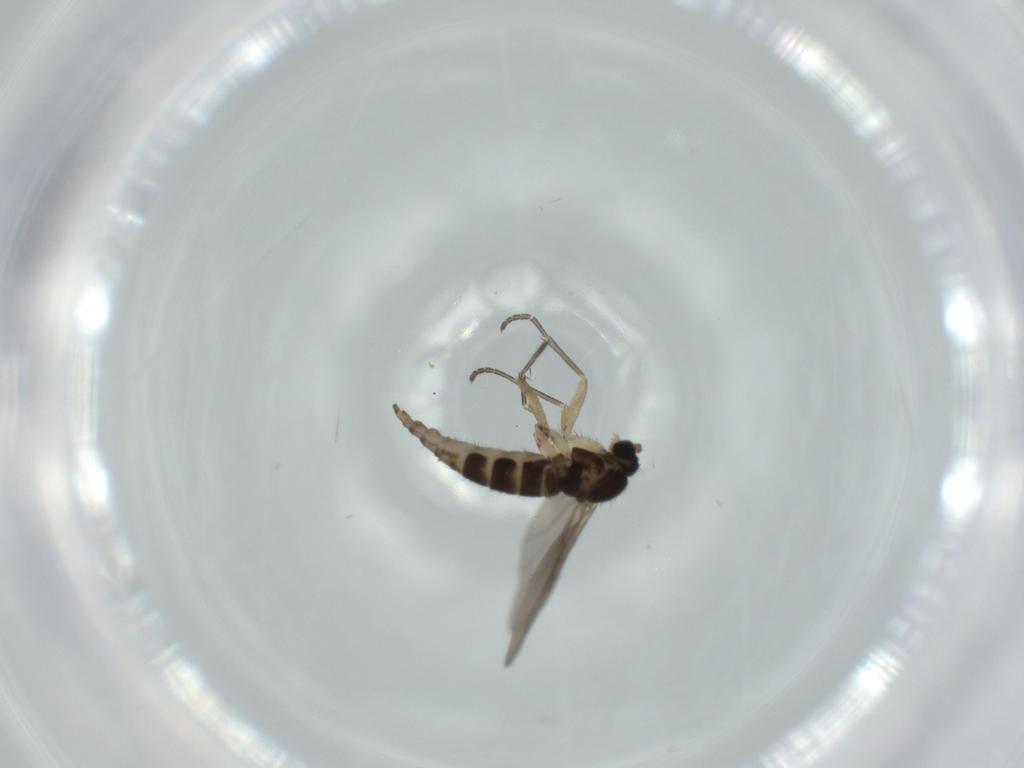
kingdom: Animalia
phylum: Arthropoda
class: Insecta
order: Diptera
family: Sciaridae
